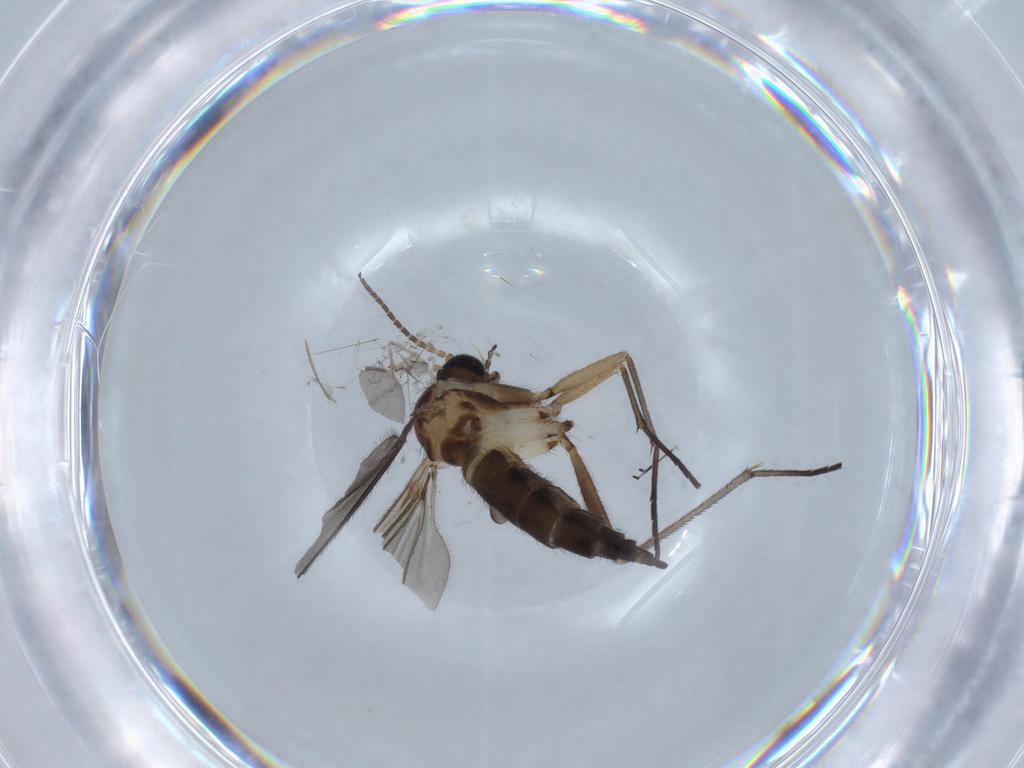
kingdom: Animalia
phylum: Arthropoda
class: Insecta
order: Diptera
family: Sciaridae
